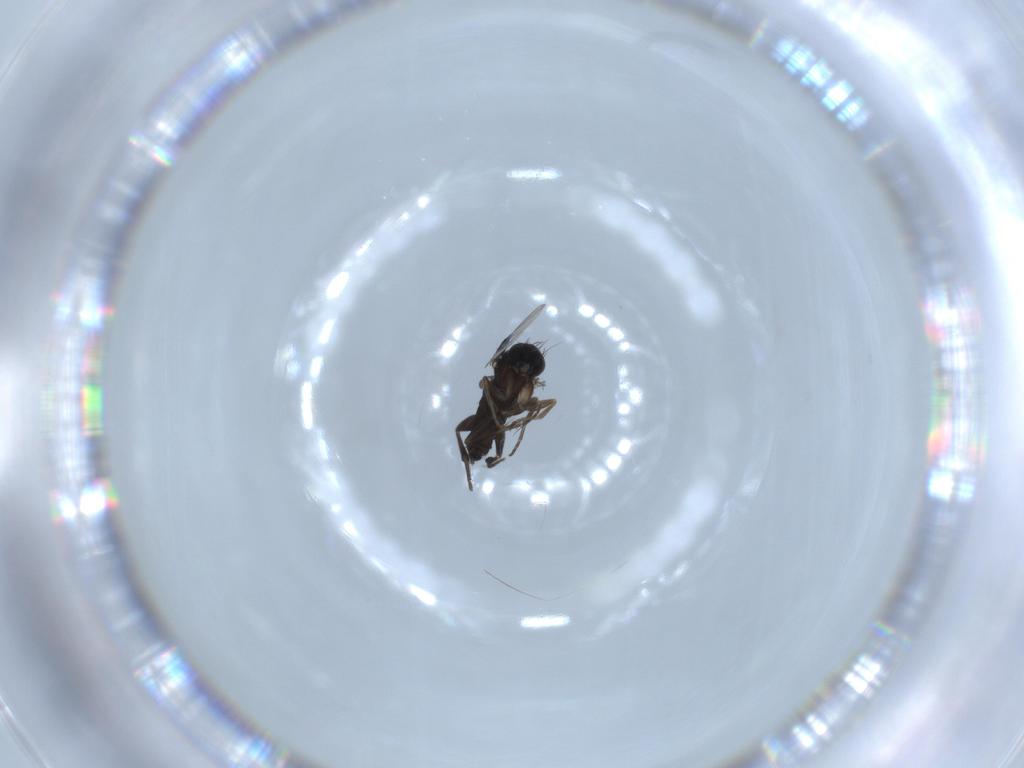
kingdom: Animalia
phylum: Arthropoda
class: Insecta
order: Diptera
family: Phoridae
